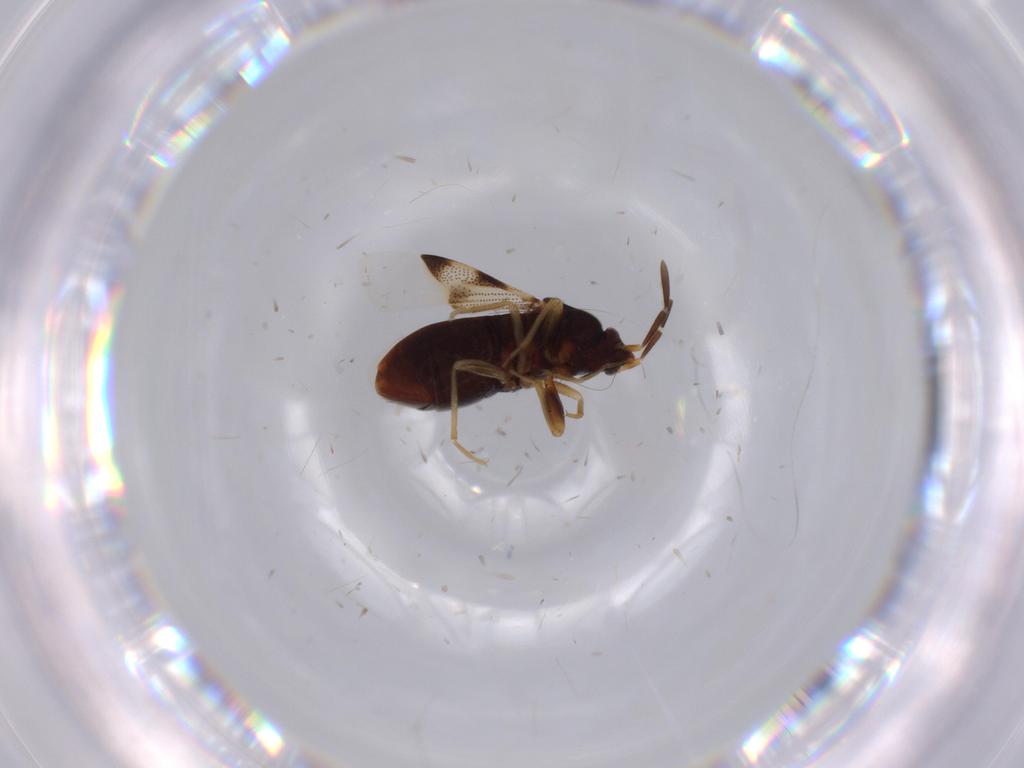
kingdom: Animalia
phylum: Arthropoda
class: Insecta
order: Hemiptera
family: Rhyparochromidae
